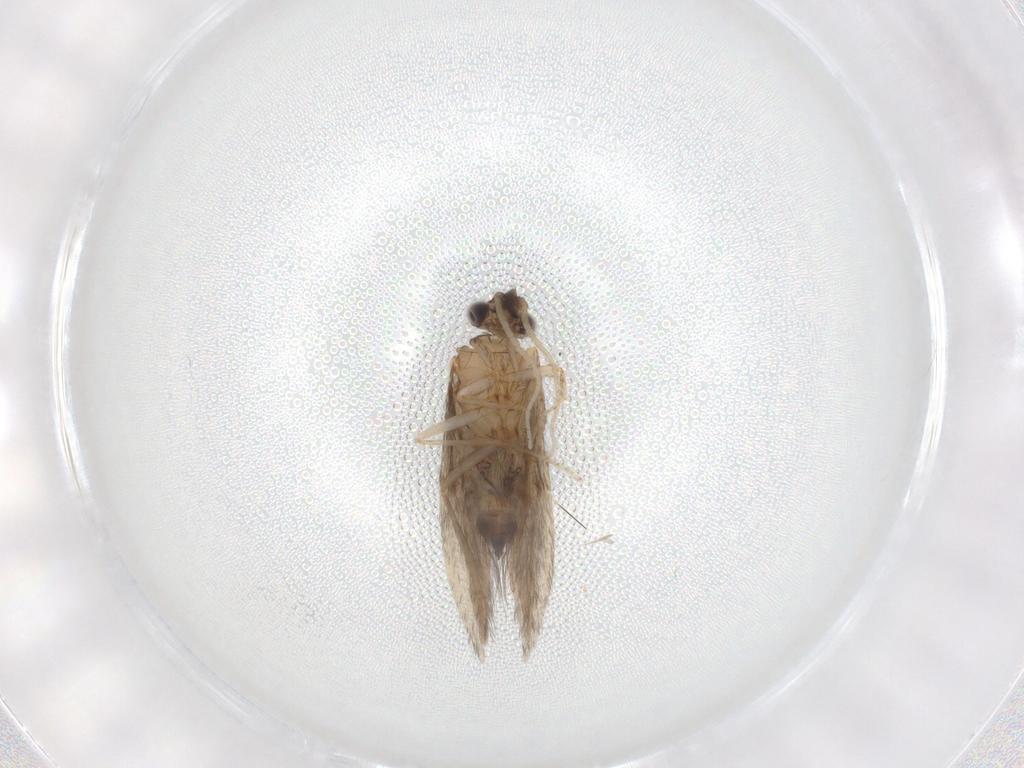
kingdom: Animalia
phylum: Arthropoda
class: Insecta
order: Trichoptera
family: Hydroptilidae
